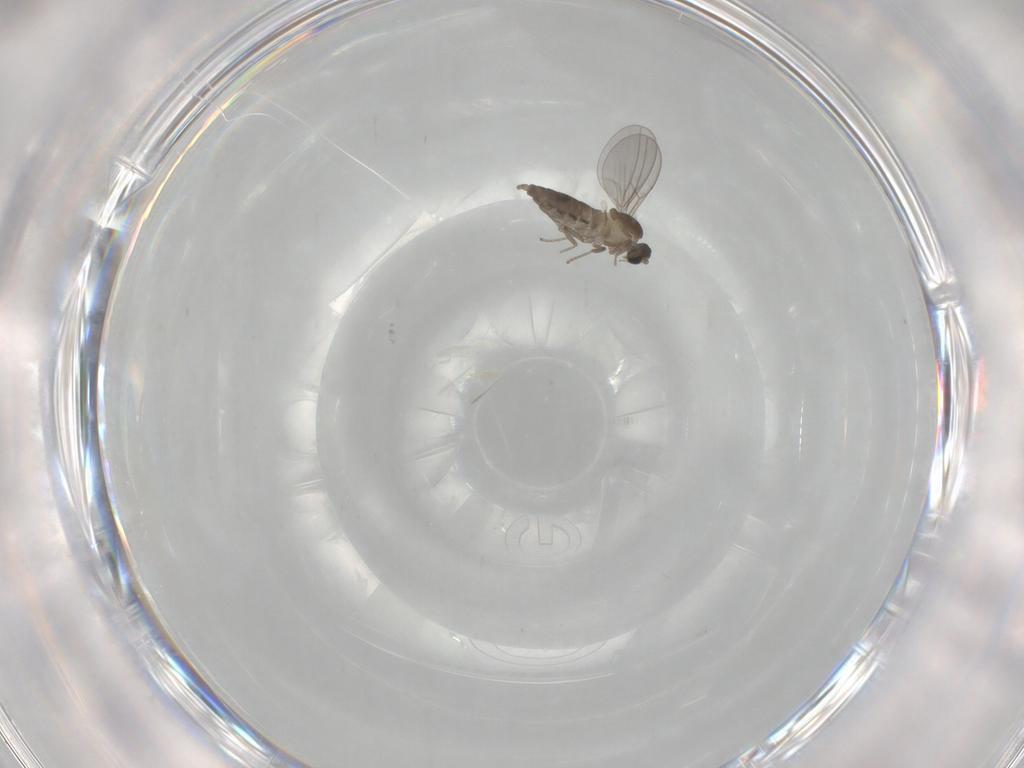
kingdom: Animalia
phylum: Arthropoda
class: Insecta
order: Diptera
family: Cecidomyiidae
